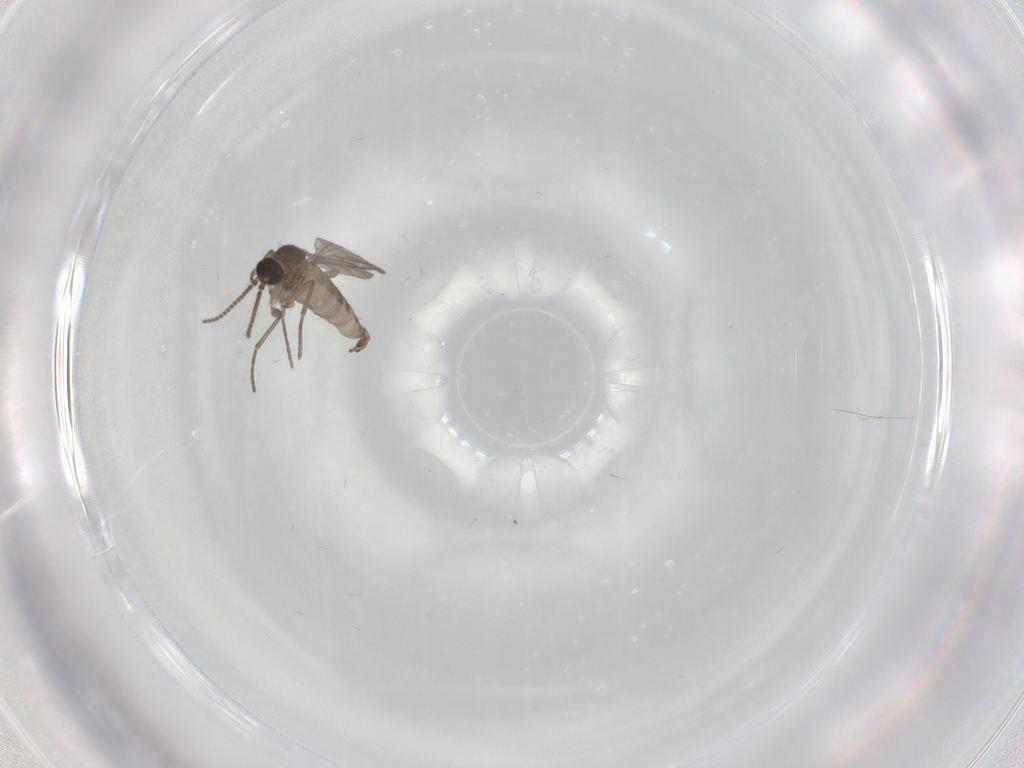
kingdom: Animalia
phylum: Arthropoda
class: Insecta
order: Diptera
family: Sciaridae
